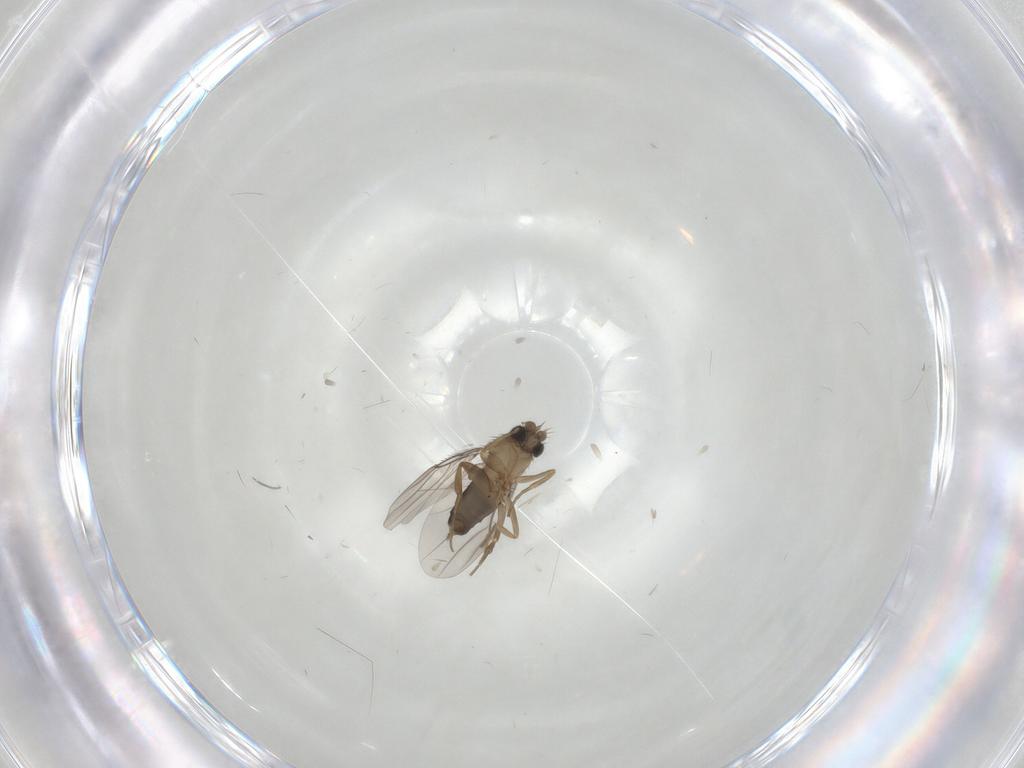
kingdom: Animalia
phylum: Arthropoda
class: Insecta
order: Diptera
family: Phoridae
